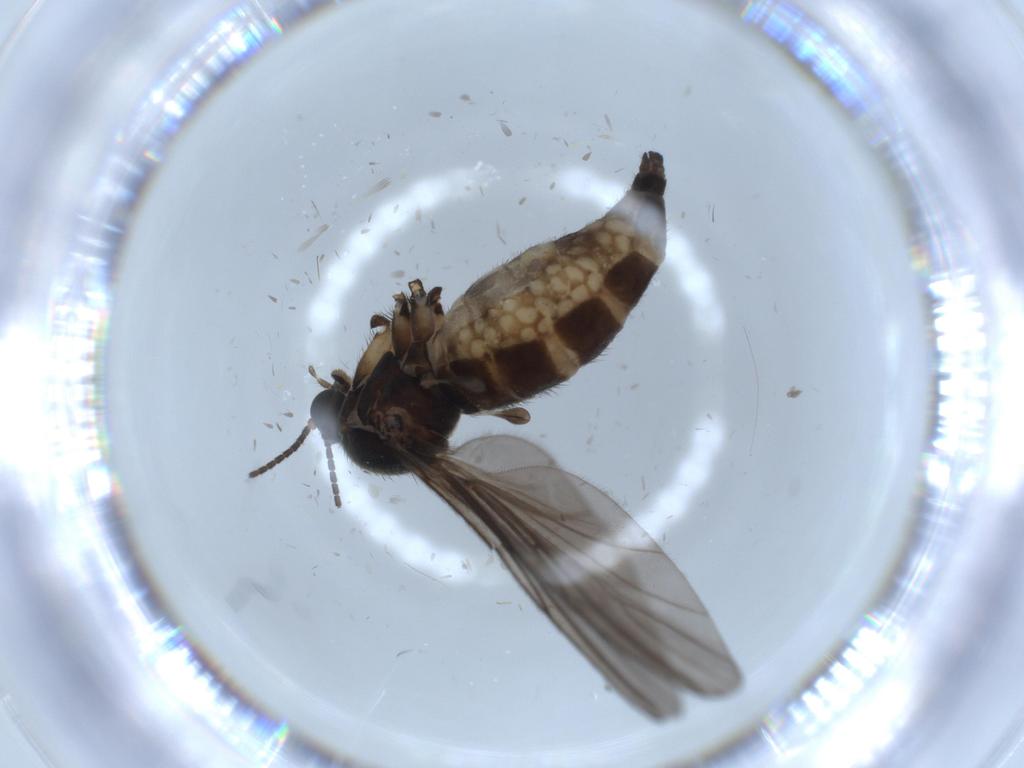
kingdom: Animalia
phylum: Arthropoda
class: Insecta
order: Diptera
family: Sciaridae
